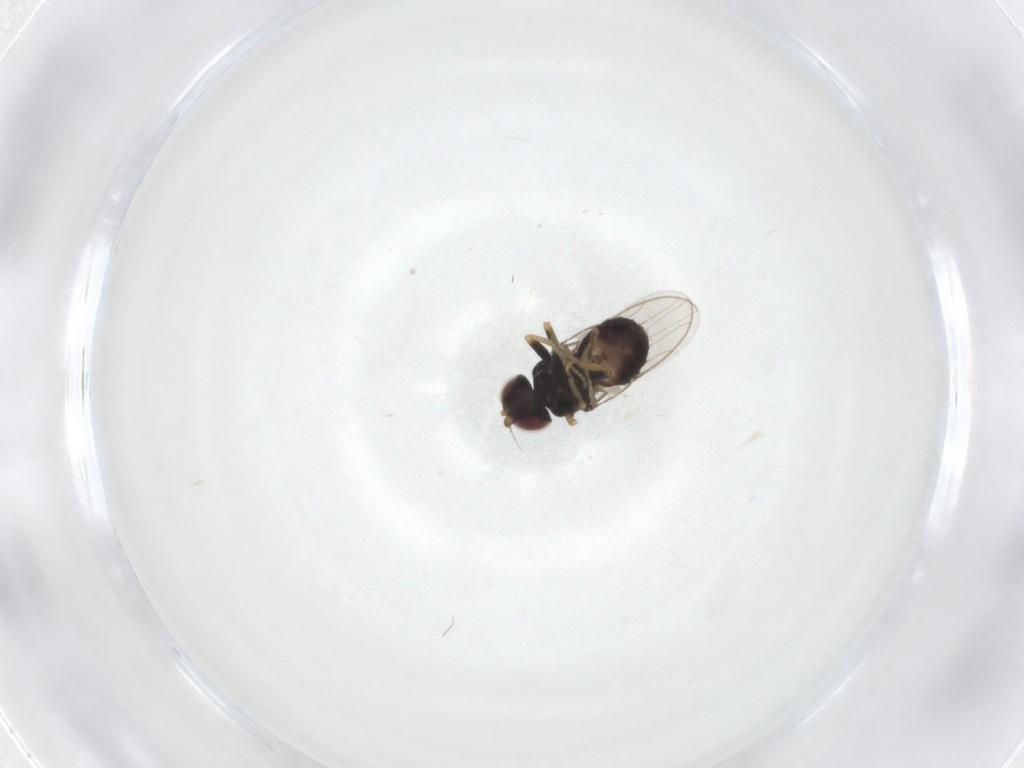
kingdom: Animalia
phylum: Arthropoda
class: Insecta
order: Diptera
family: Chloropidae
